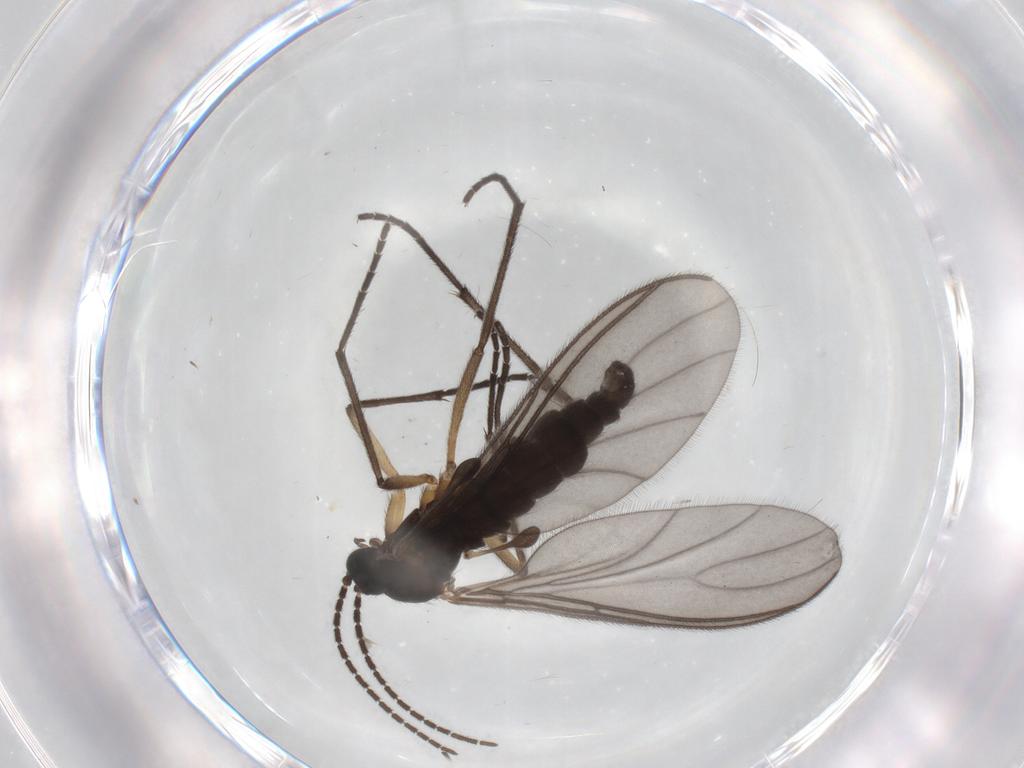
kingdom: Animalia
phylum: Arthropoda
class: Insecta
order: Diptera
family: Sciaridae
